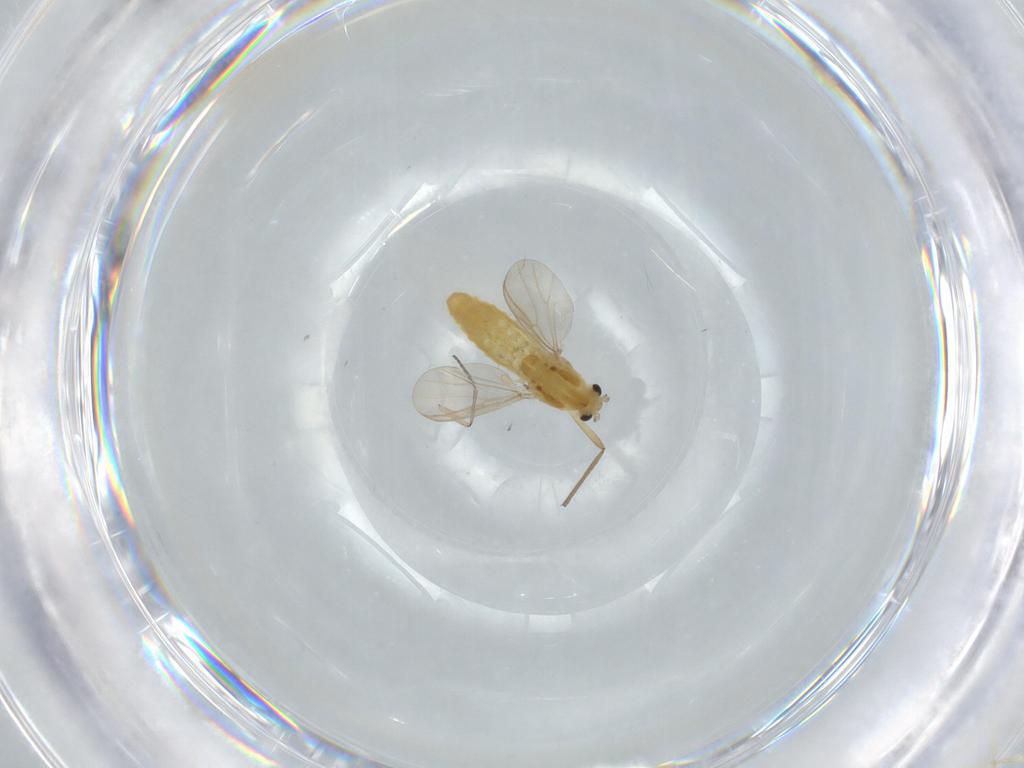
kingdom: Animalia
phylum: Arthropoda
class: Insecta
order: Diptera
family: Chironomidae
